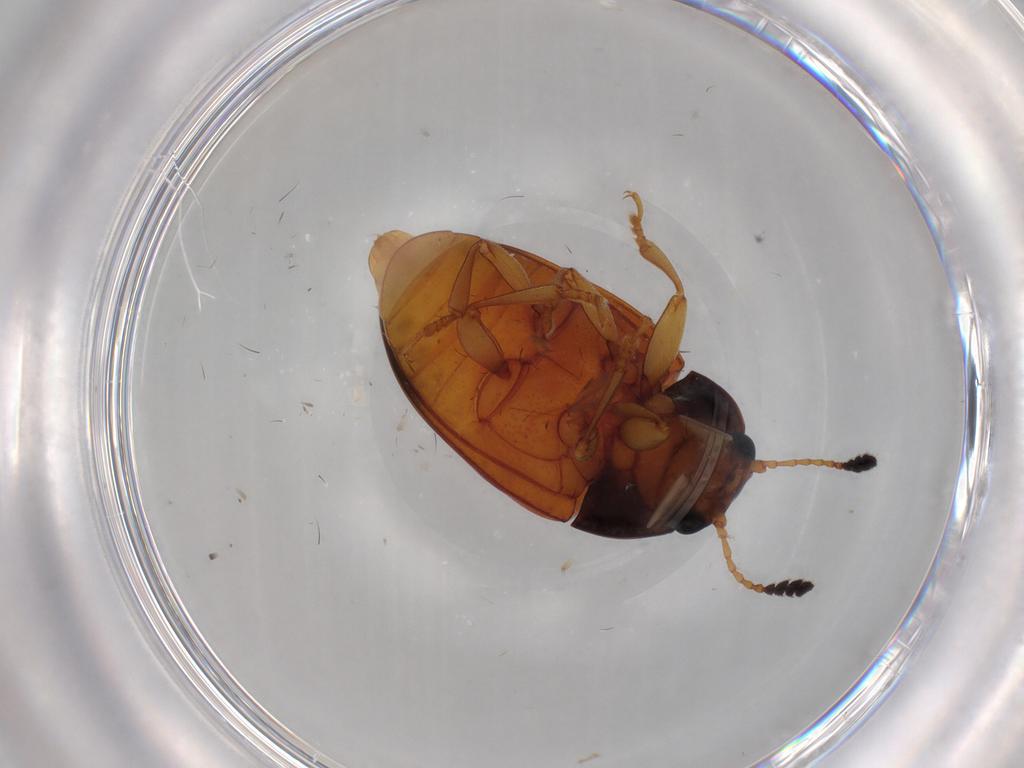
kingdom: Animalia
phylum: Arthropoda
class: Insecta
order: Coleoptera
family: Erotylidae
